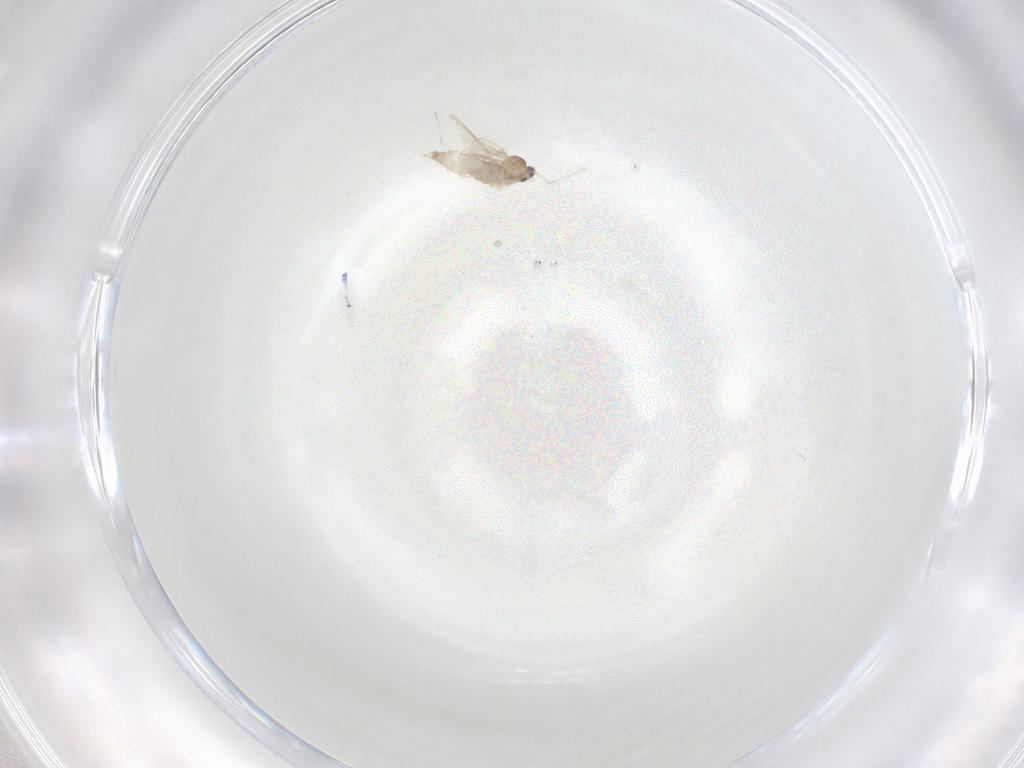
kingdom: Animalia
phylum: Arthropoda
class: Insecta
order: Diptera
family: Cecidomyiidae
